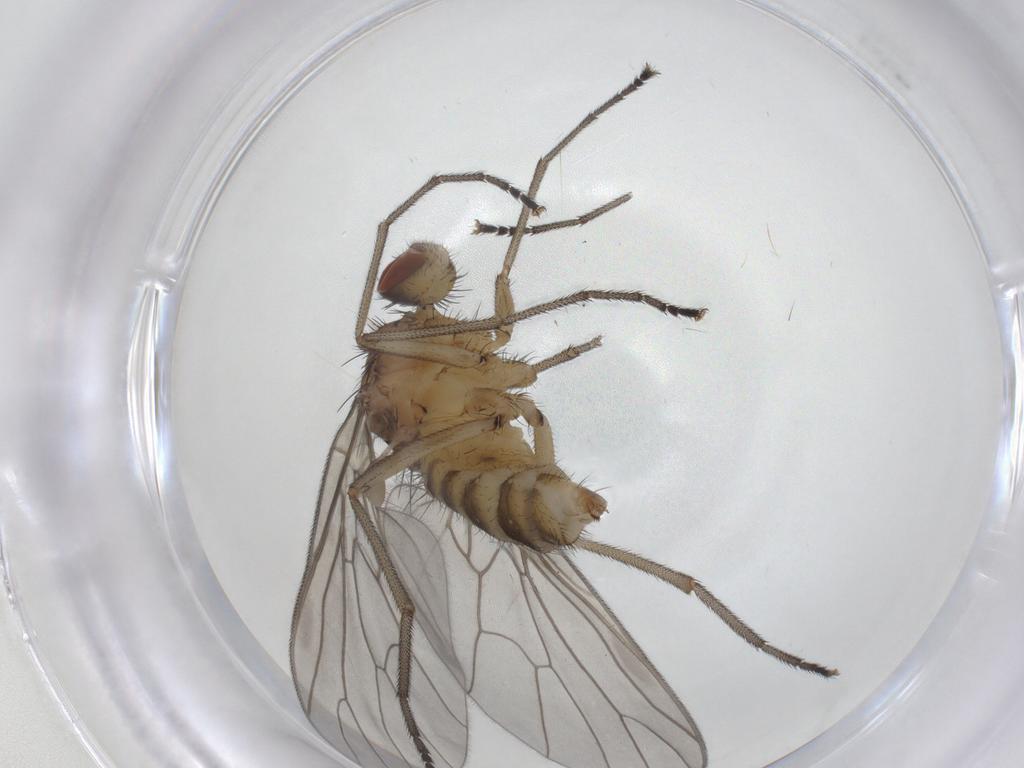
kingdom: Animalia
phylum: Arthropoda
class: Insecta
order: Diptera
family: Brachystomatidae
